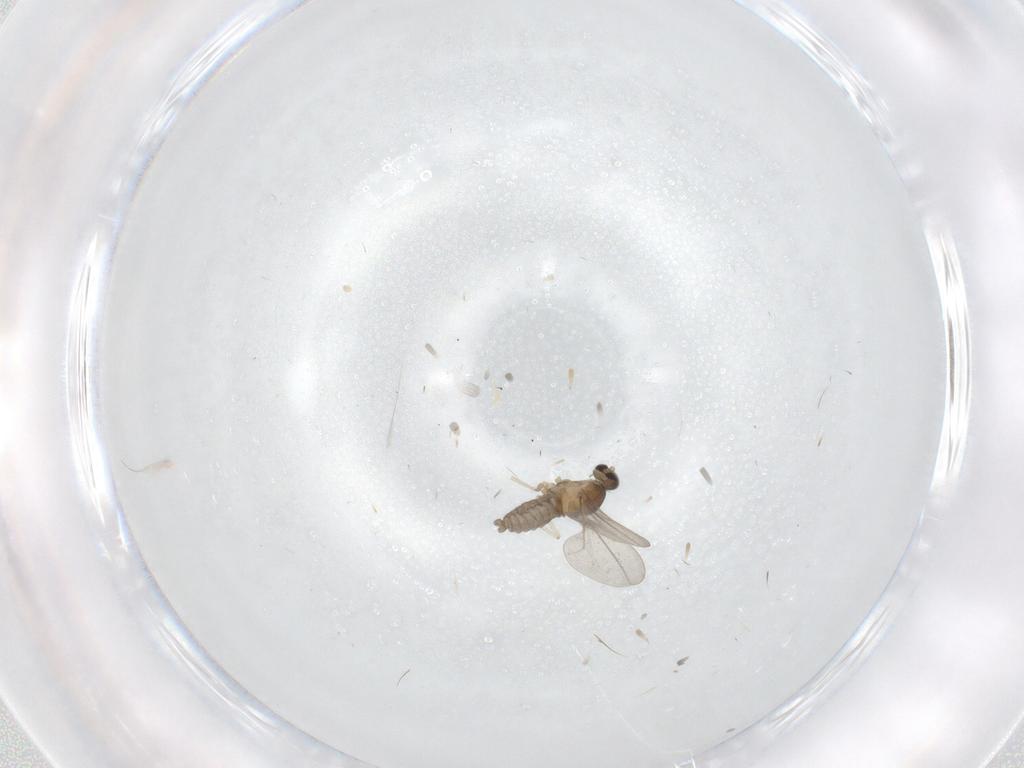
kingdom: Animalia
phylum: Arthropoda
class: Insecta
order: Diptera
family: Cecidomyiidae
